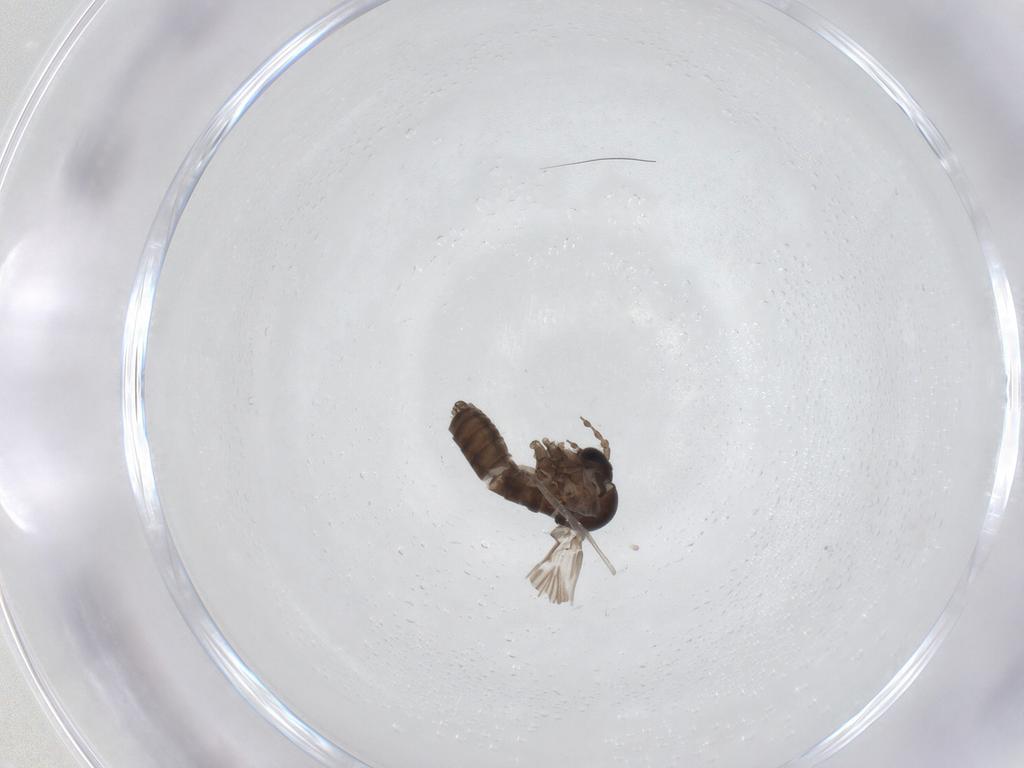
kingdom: Animalia
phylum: Arthropoda
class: Insecta
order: Diptera
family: Psychodidae
